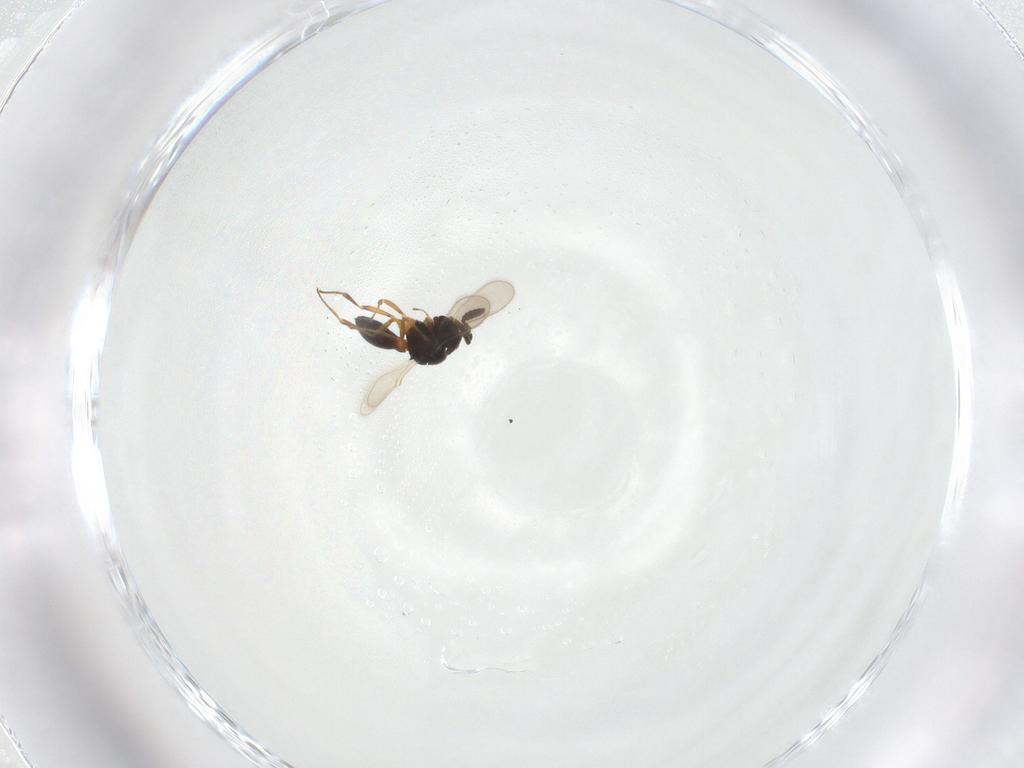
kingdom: Animalia
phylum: Arthropoda
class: Insecta
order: Hymenoptera
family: Scelionidae
